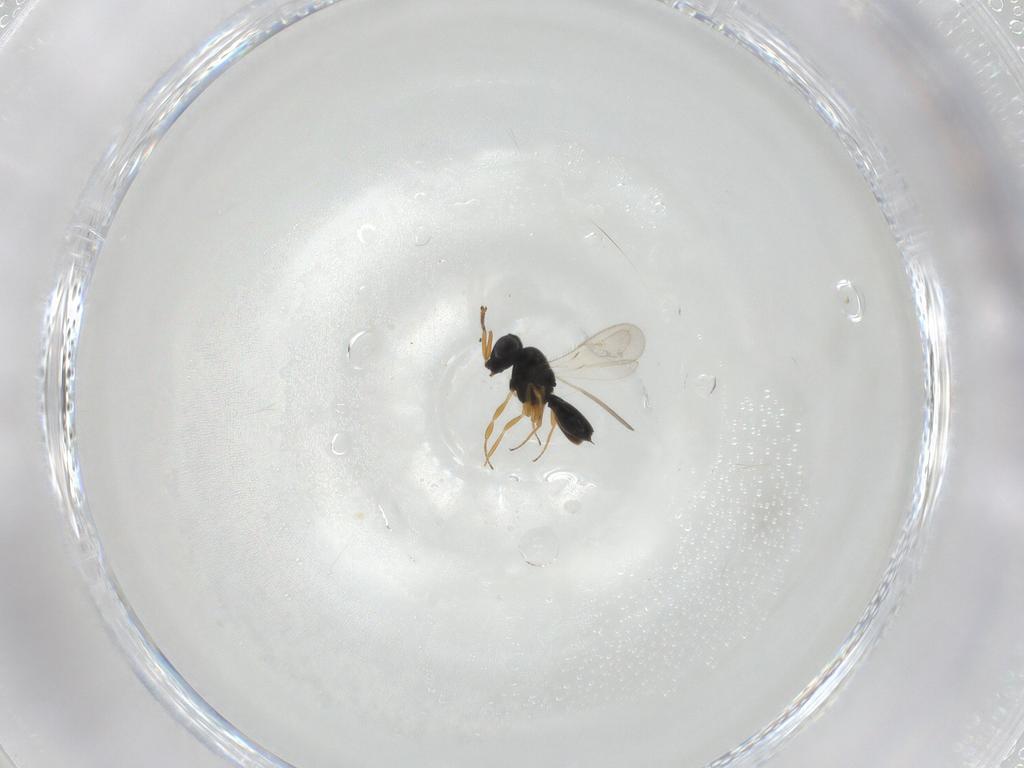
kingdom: Animalia
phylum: Arthropoda
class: Insecta
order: Hymenoptera
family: Scelionidae
